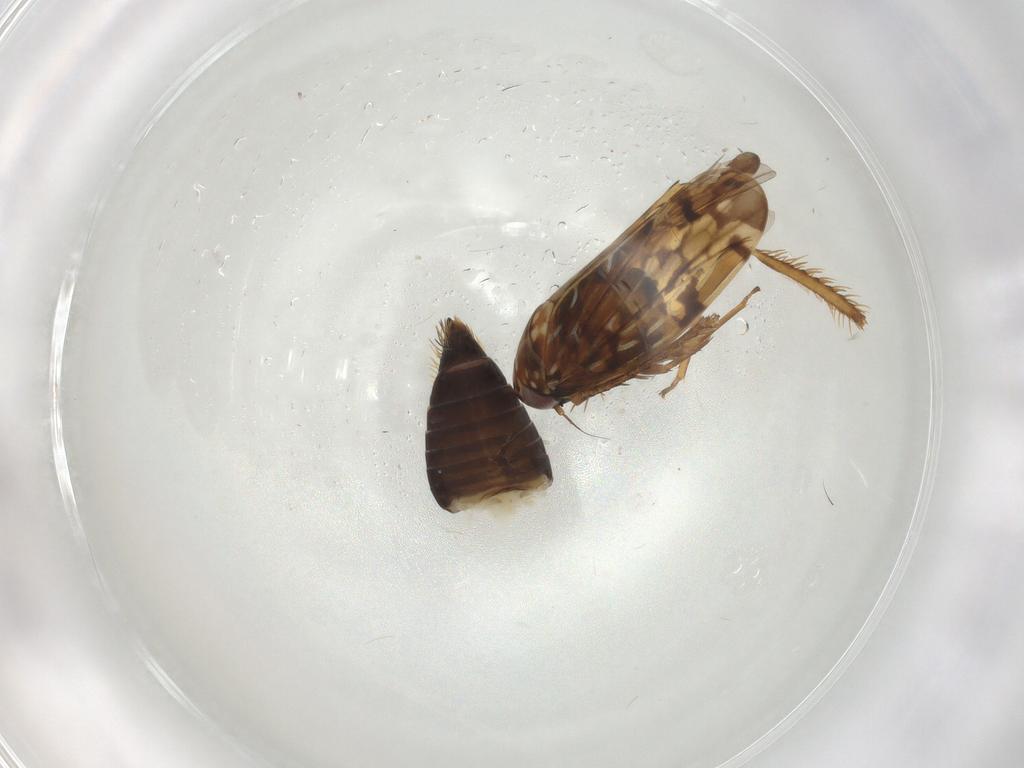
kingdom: Animalia
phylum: Arthropoda
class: Insecta
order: Hemiptera
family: Cicadellidae
